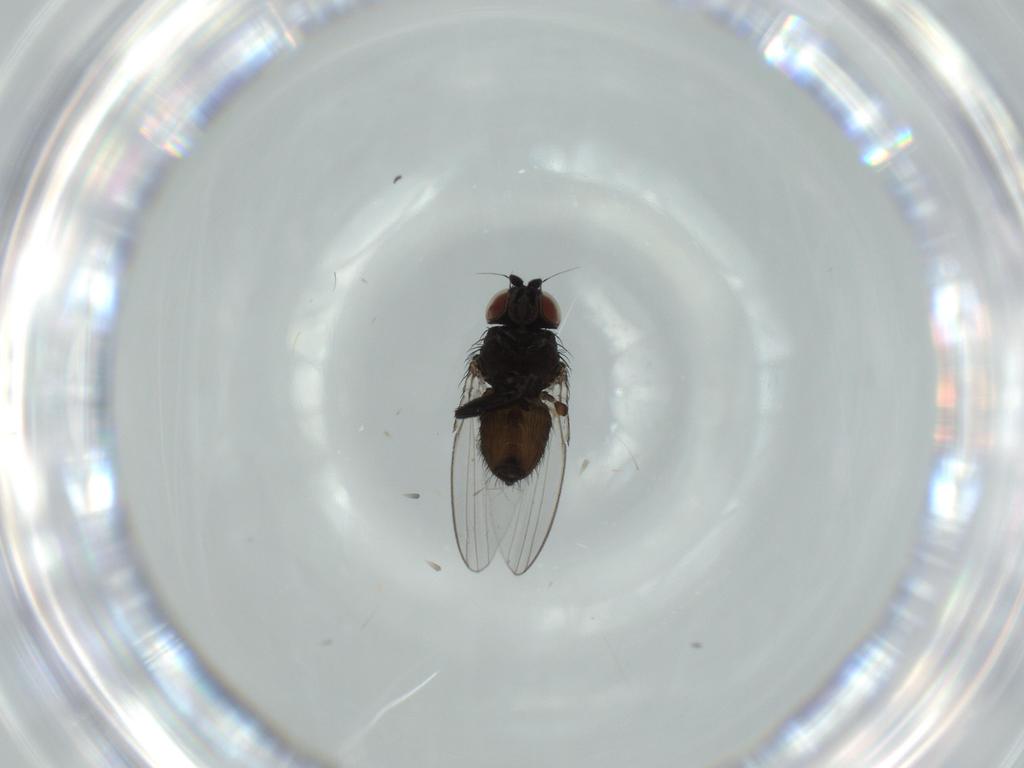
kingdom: Animalia
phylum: Arthropoda
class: Insecta
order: Diptera
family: Milichiidae
